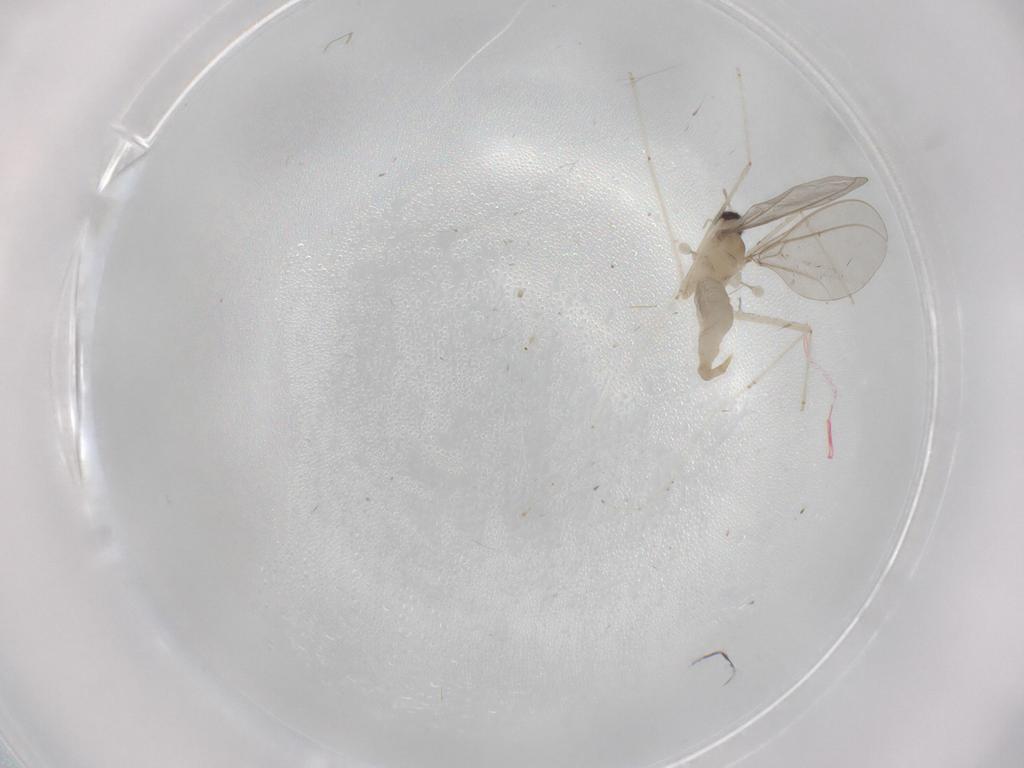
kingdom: Animalia
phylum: Arthropoda
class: Insecta
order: Diptera
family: Cecidomyiidae
